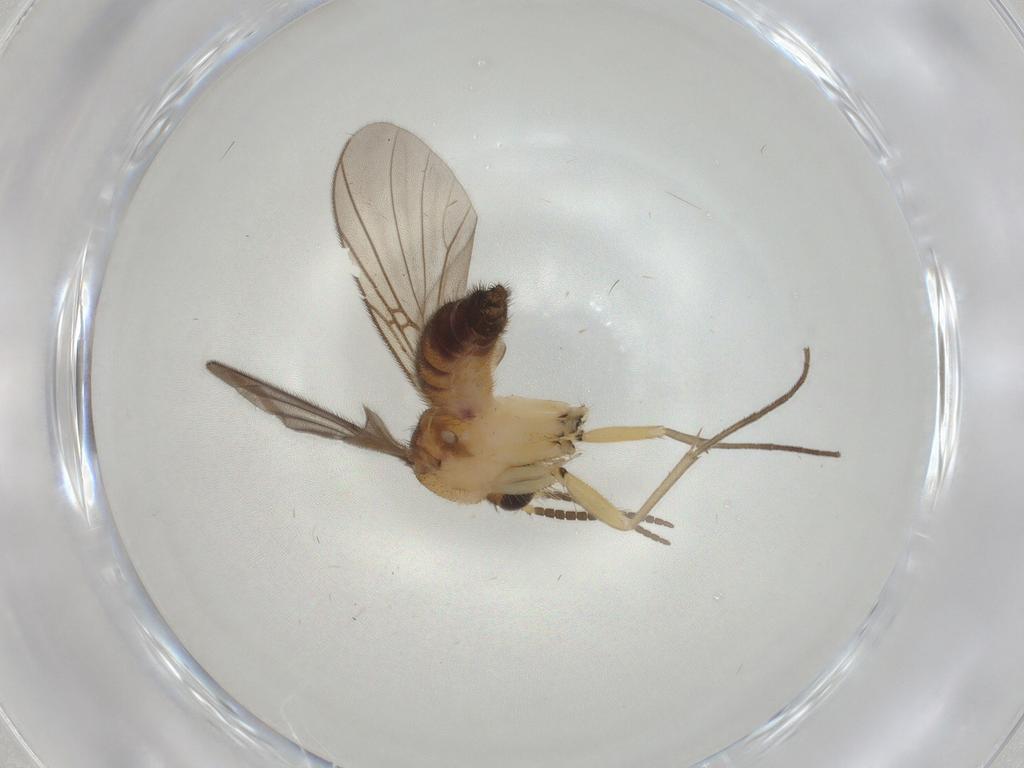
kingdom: Animalia
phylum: Arthropoda
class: Insecta
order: Diptera
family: Mycetophilidae
